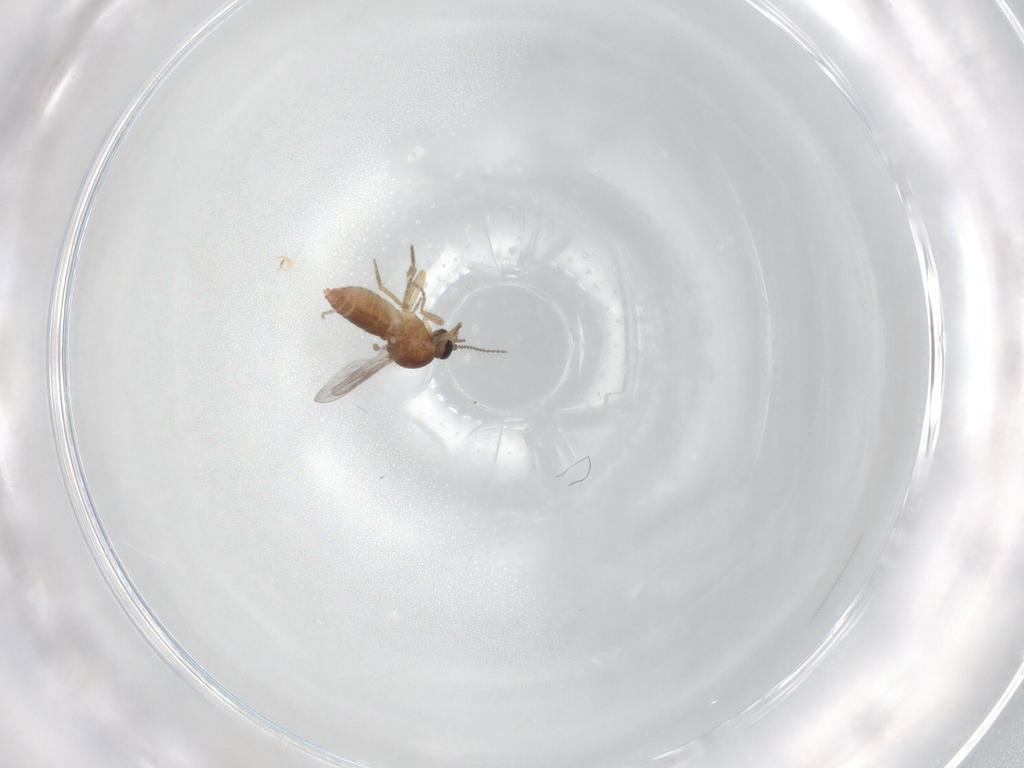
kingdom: Animalia
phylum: Arthropoda
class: Insecta
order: Diptera
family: Ceratopogonidae
